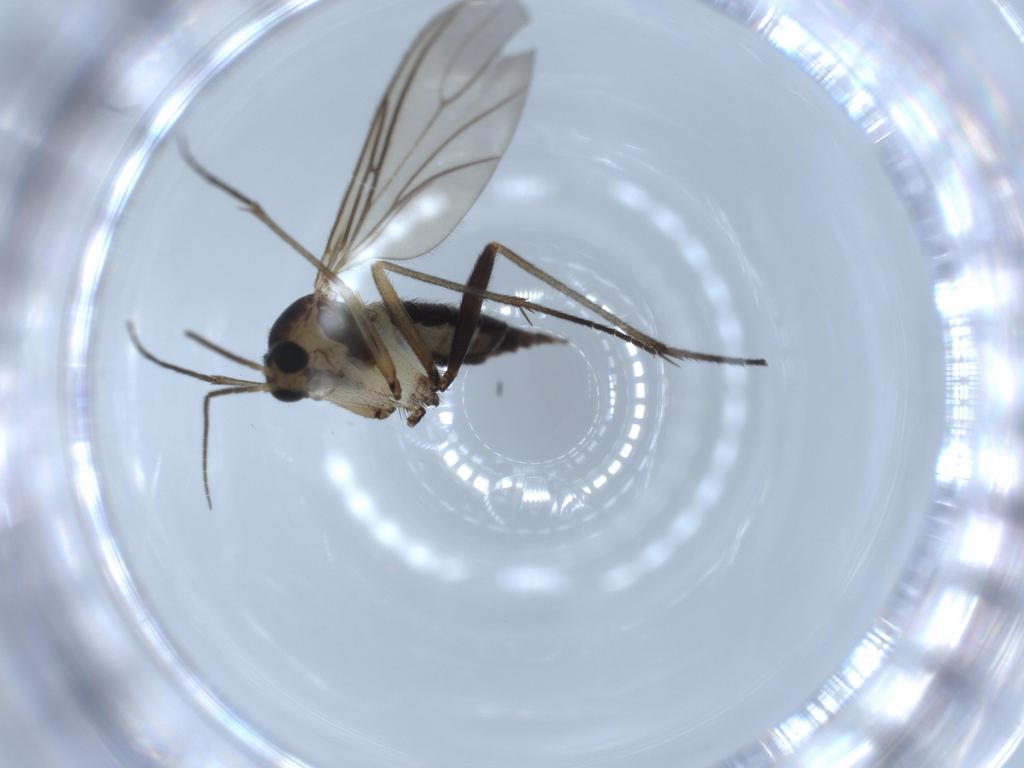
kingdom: Animalia
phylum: Arthropoda
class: Insecta
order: Diptera
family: Sciaridae
